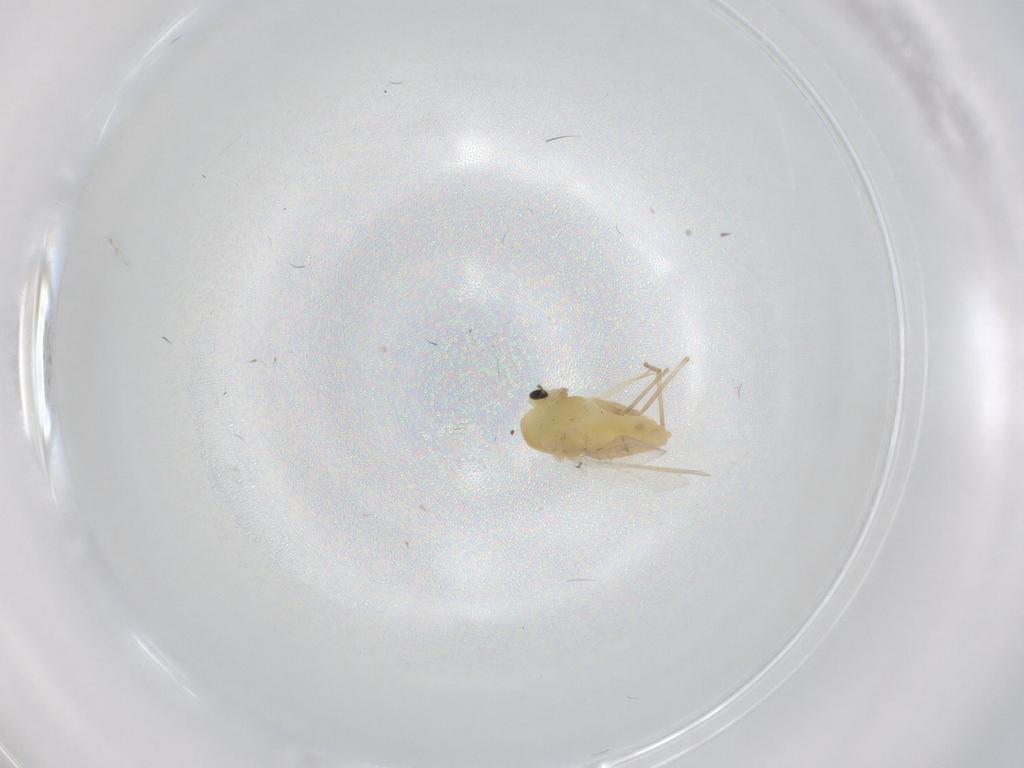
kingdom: Animalia
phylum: Arthropoda
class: Insecta
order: Diptera
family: Chironomidae
